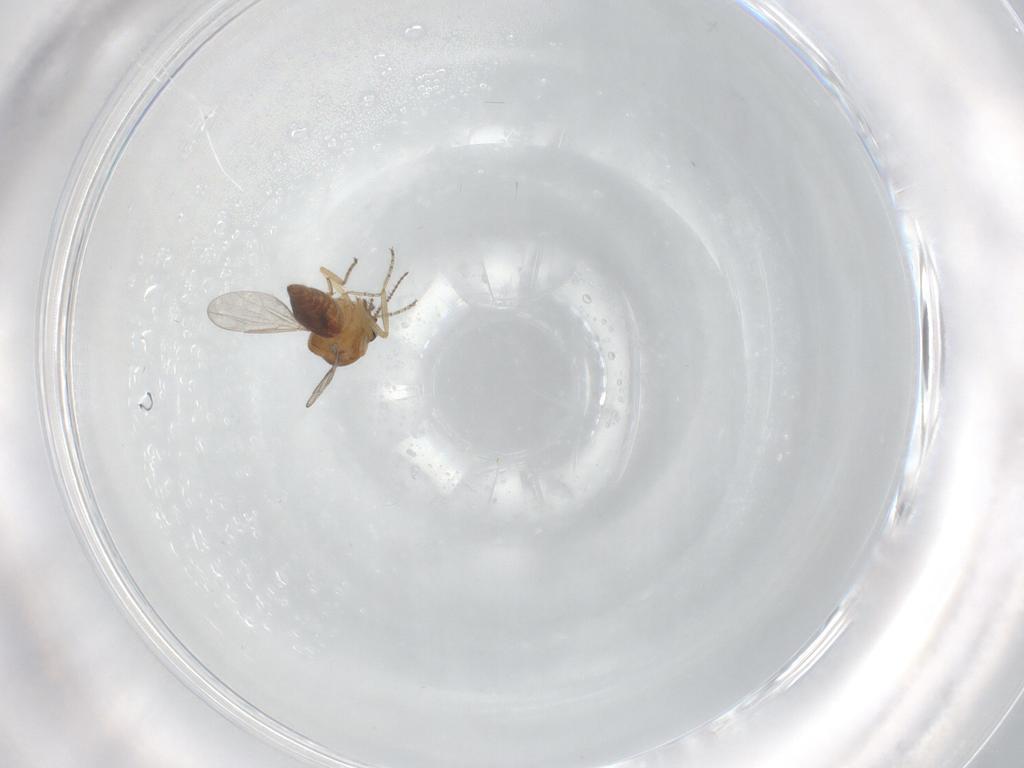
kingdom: Animalia
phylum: Arthropoda
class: Insecta
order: Diptera
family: Ceratopogonidae
